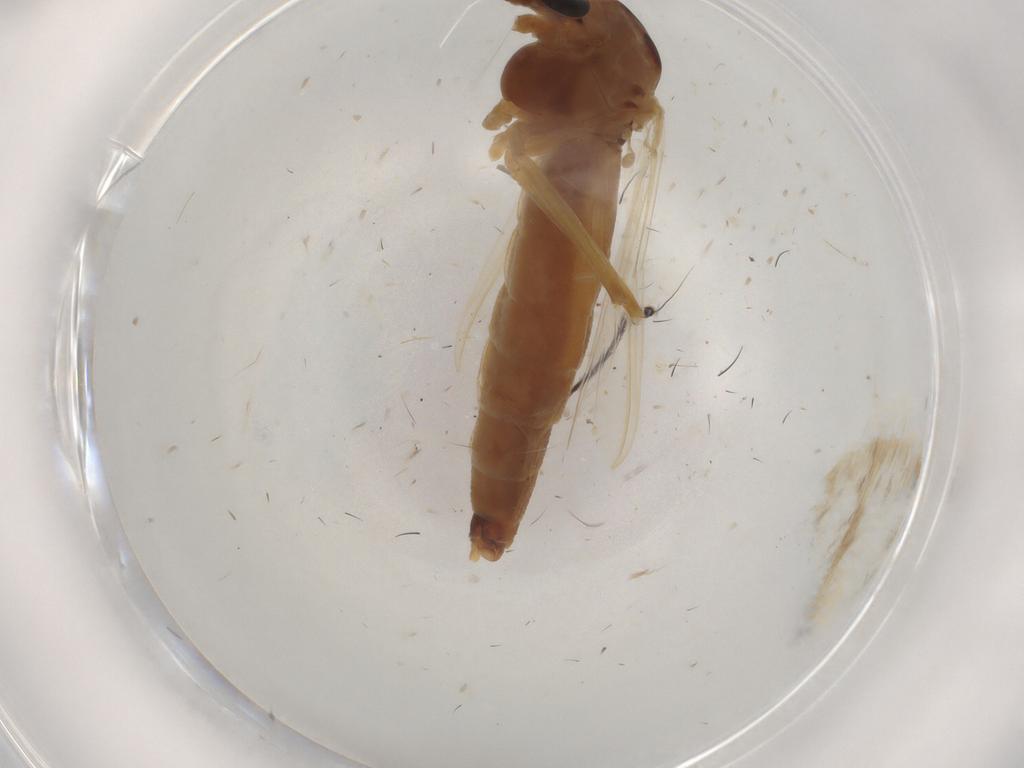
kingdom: Animalia
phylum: Arthropoda
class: Insecta
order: Diptera
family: Chironomidae
